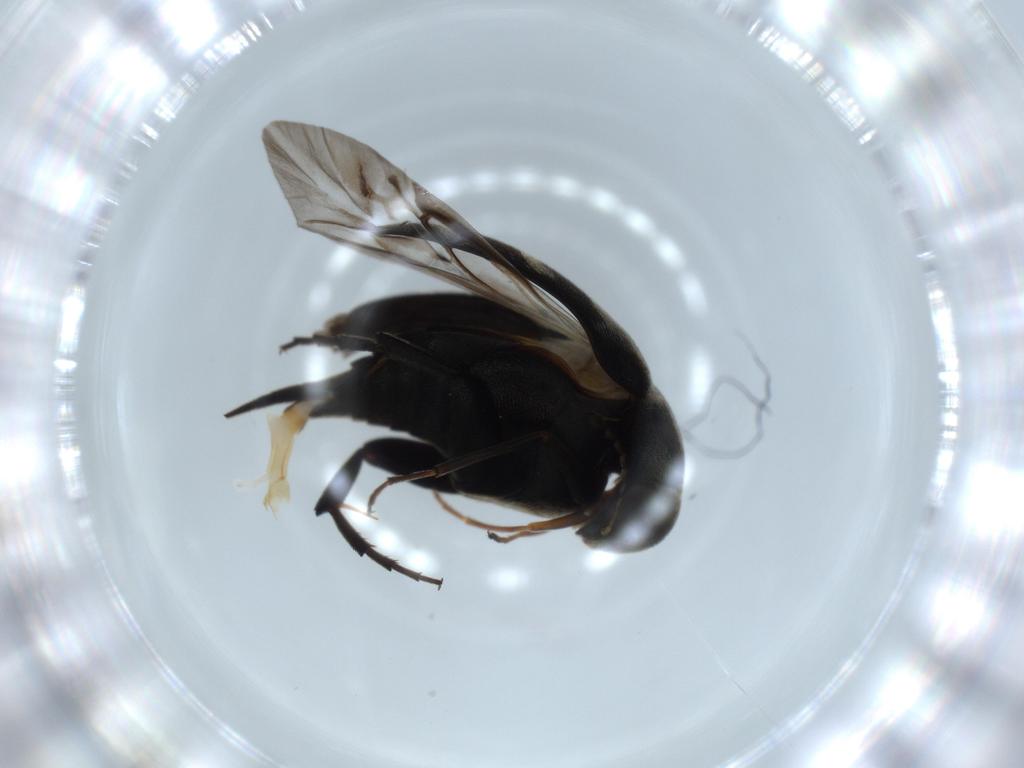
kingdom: Animalia
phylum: Arthropoda
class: Insecta
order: Coleoptera
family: Mordellidae
